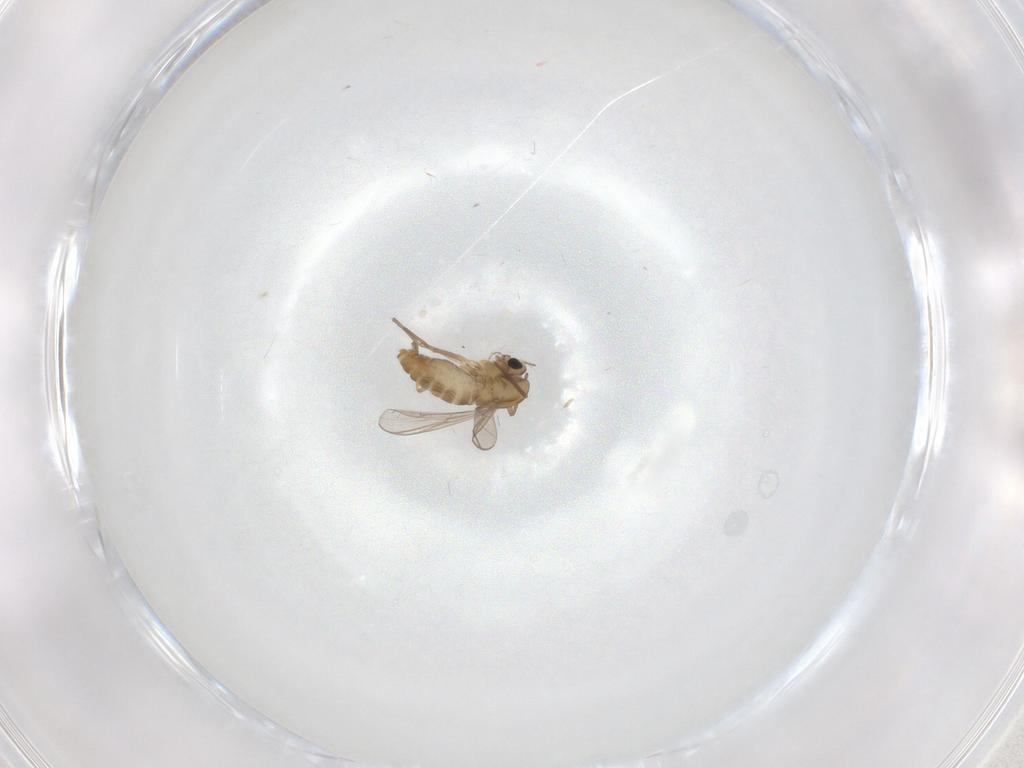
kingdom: Animalia
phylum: Arthropoda
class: Insecta
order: Diptera
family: Chironomidae
